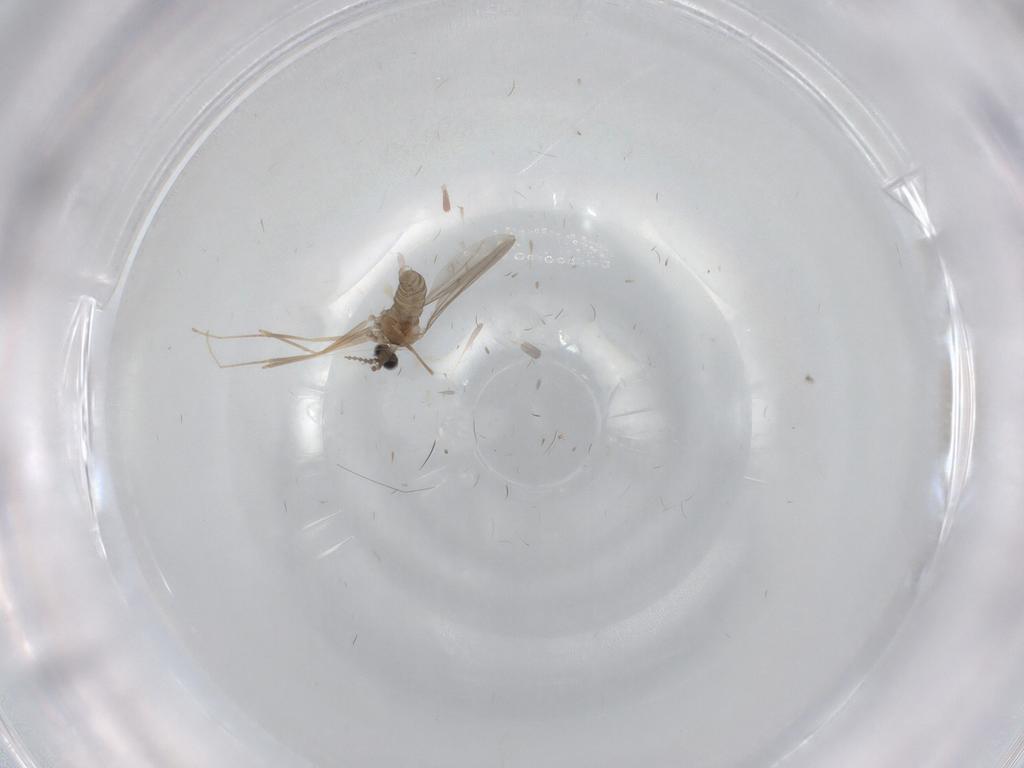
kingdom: Animalia
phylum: Arthropoda
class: Insecta
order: Diptera
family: Chironomidae
